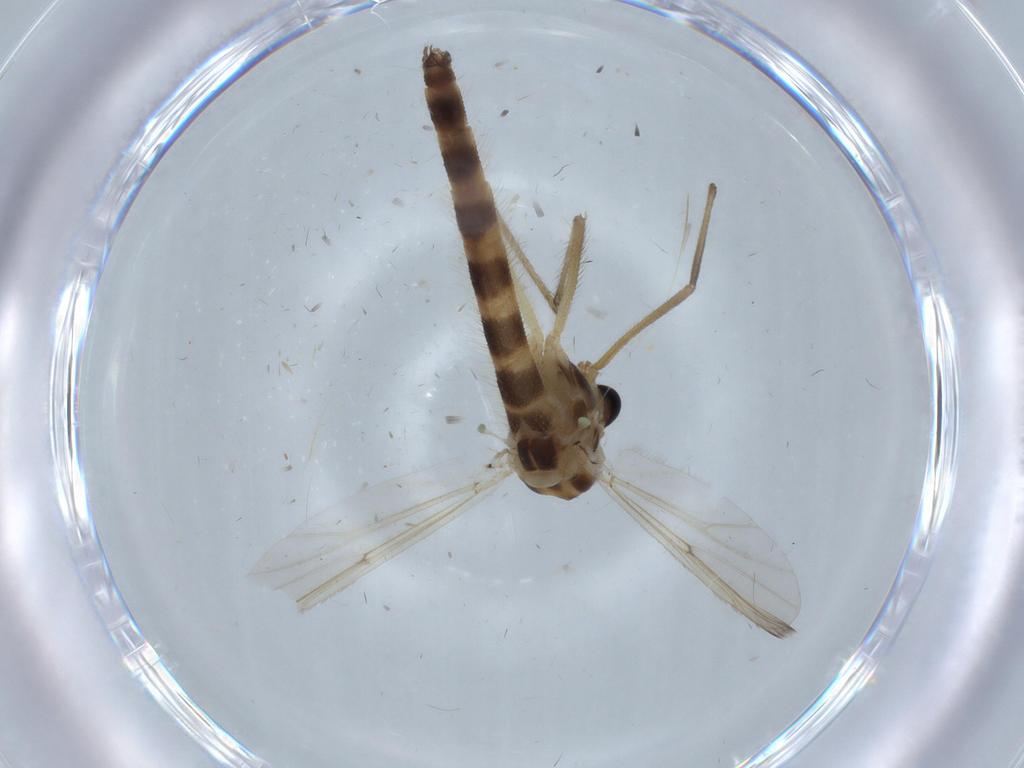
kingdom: Animalia
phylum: Arthropoda
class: Insecta
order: Diptera
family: Chironomidae
